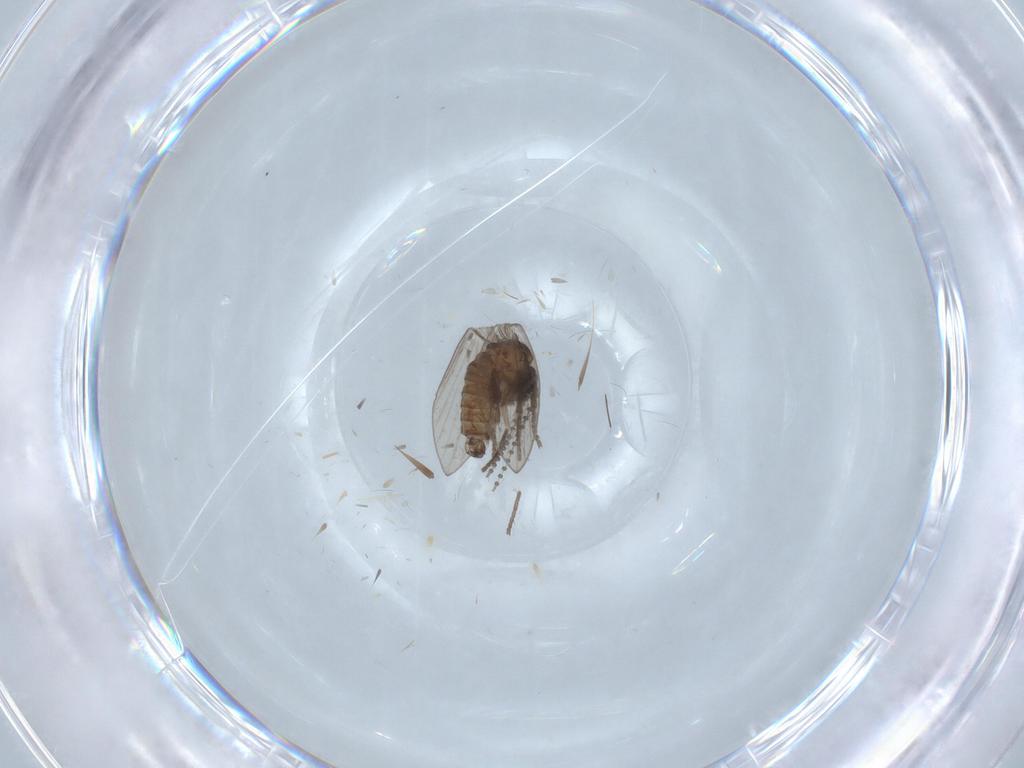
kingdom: Animalia
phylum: Arthropoda
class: Insecta
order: Diptera
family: Psychodidae
